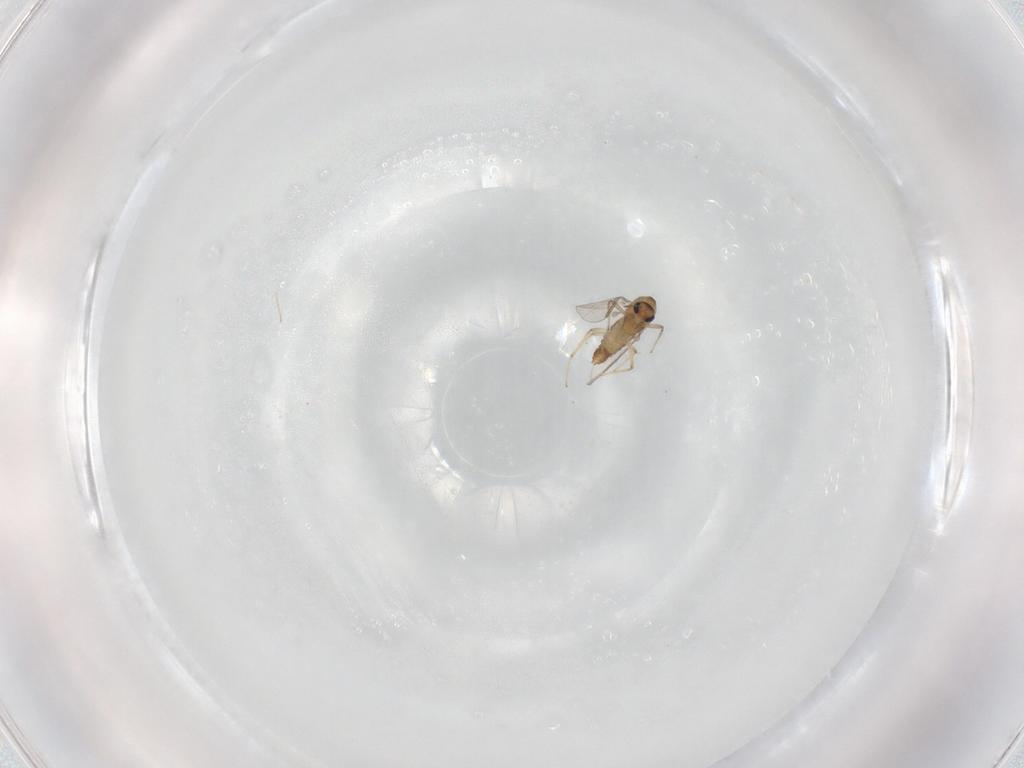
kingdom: Animalia
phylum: Arthropoda
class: Insecta
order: Diptera
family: Chironomidae
